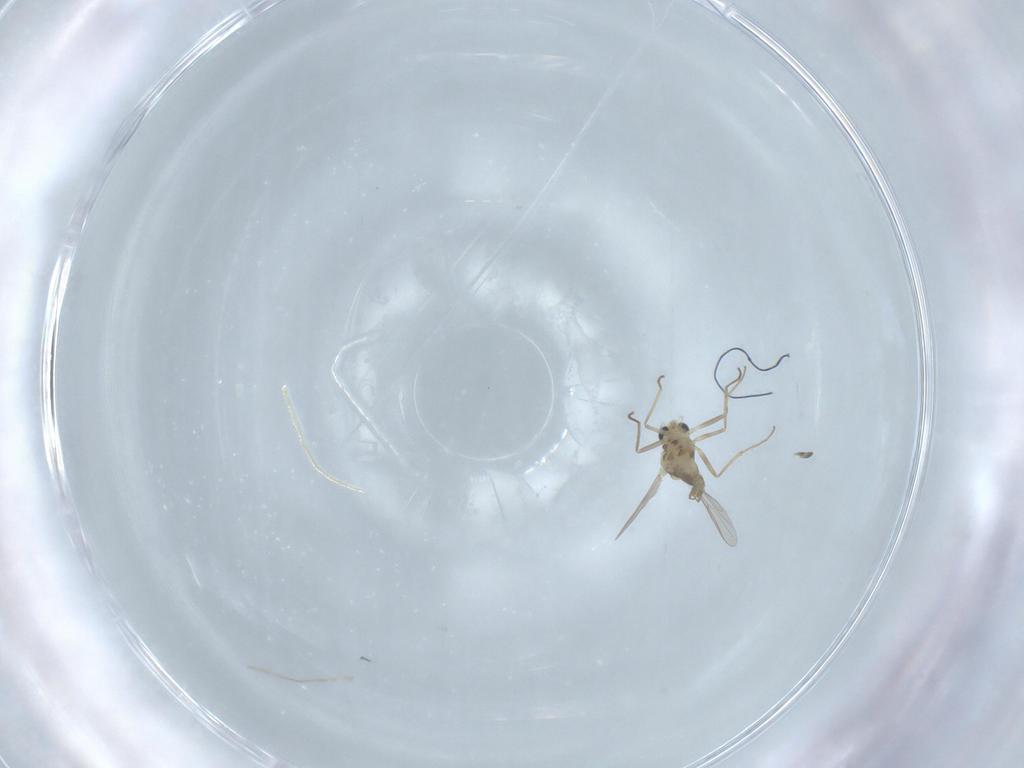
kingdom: Animalia
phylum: Arthropoda
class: Insecta
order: Diptera
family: Chironomidae
